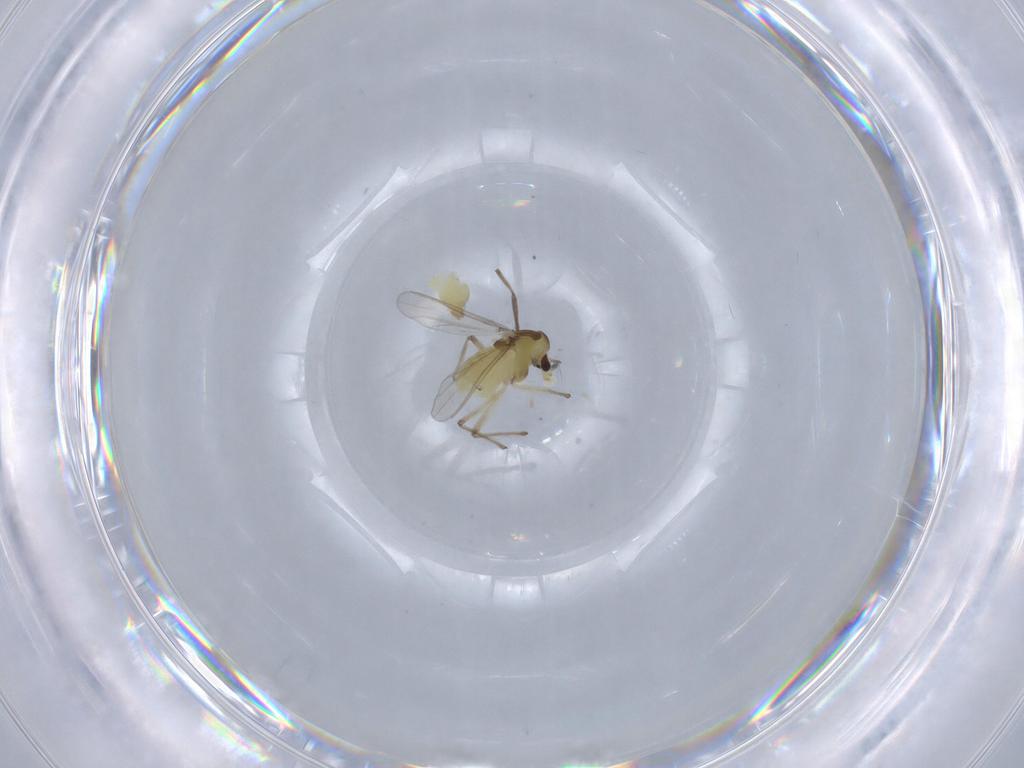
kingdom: Animalia
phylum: Arthropoda
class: Insecta
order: Diptera
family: Chironomidae
